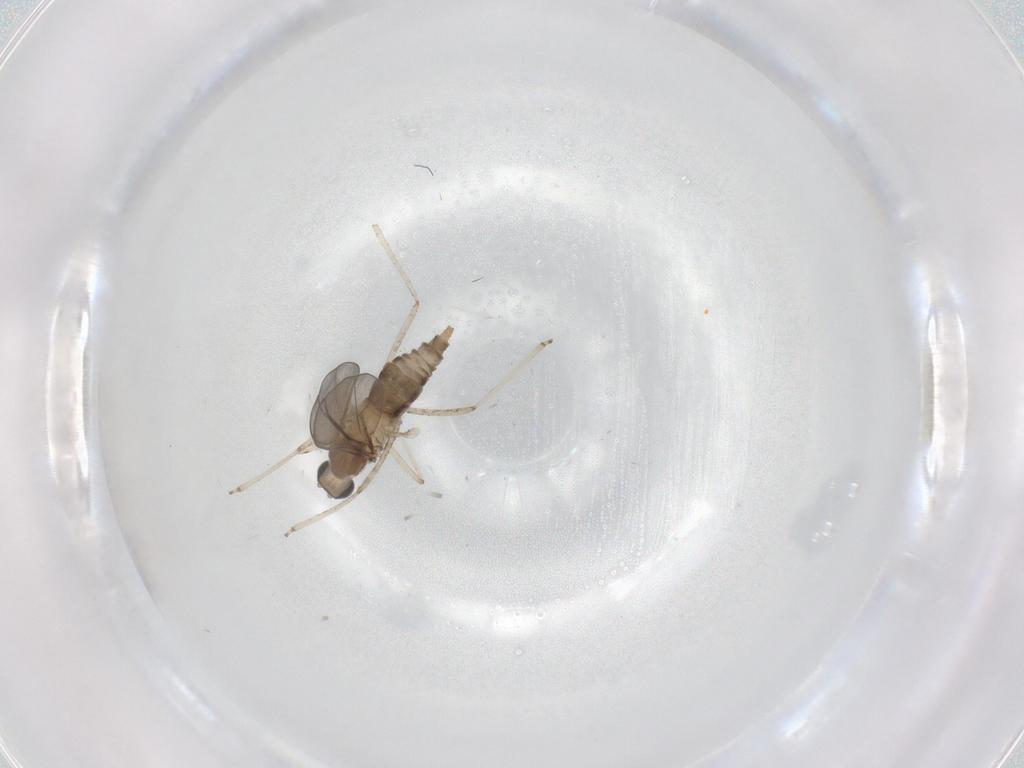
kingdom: Animalia
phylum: Arthropoda
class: Insecta
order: Diptera
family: Cecidomyiidae
